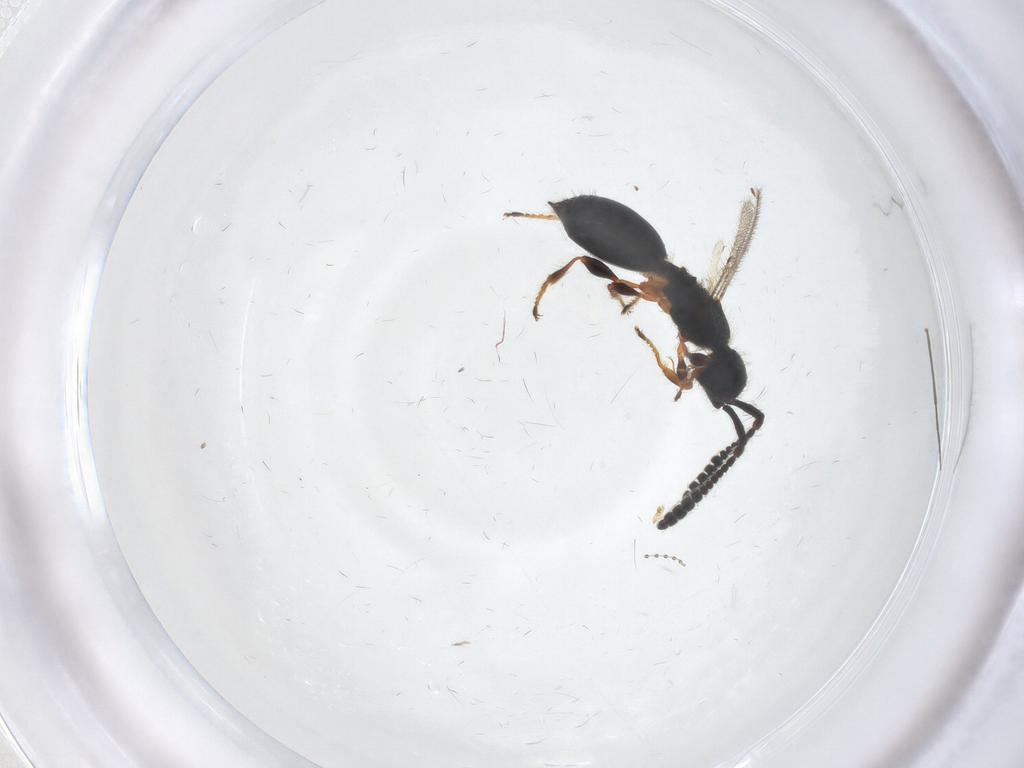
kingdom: Animalia
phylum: Arthropoda
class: Insecta
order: Hymenoptera
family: Diapriidae
